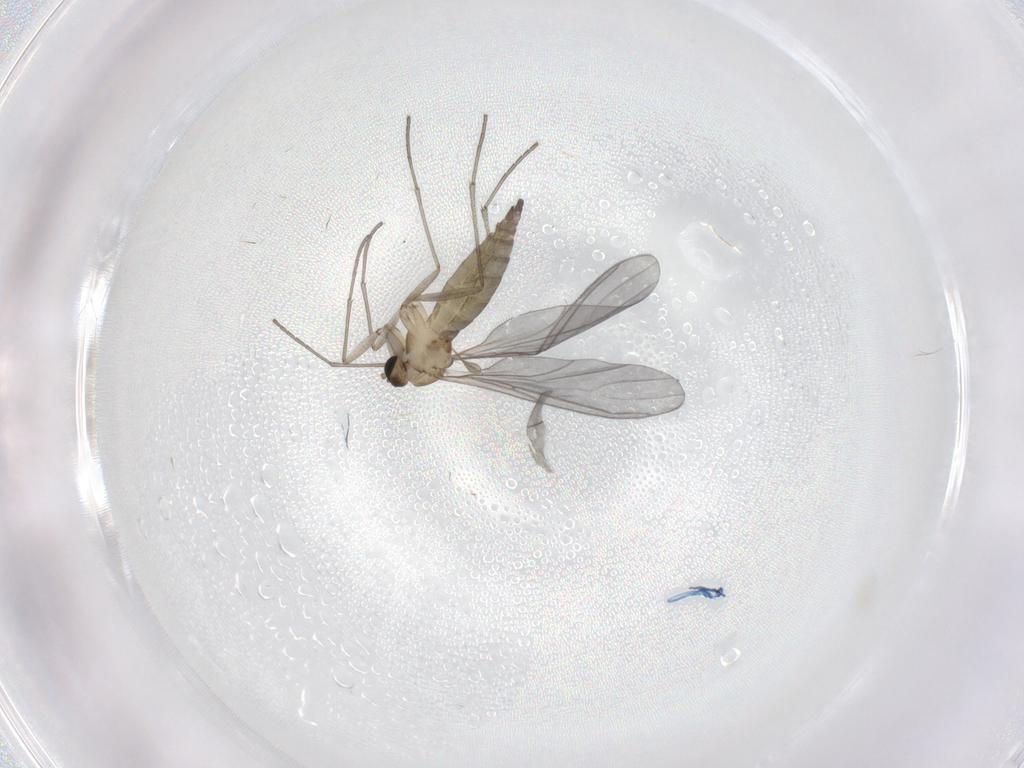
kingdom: Animalia
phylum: Arthropoda
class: Insecta
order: Diptera
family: Sciaridae
